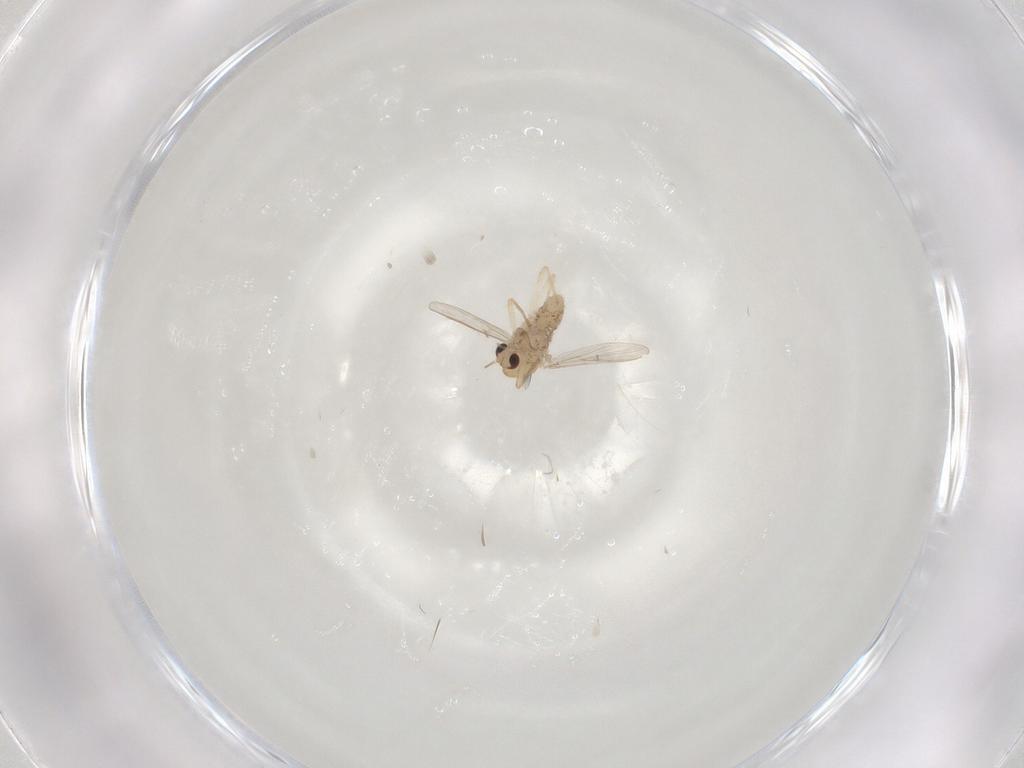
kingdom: Animalia
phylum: Arthropoda
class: Insecta
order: Diptera
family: Chironomidae
